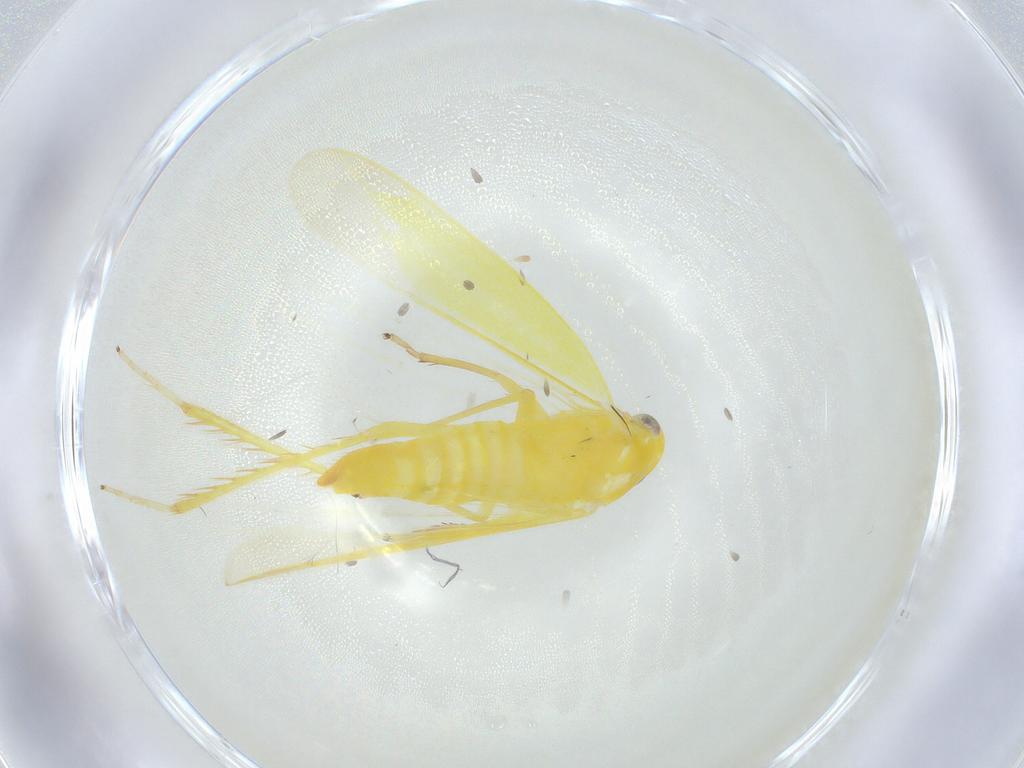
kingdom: Animalia
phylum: Arthropoda
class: Insecta
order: Hemiptera
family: Cicadellidae
